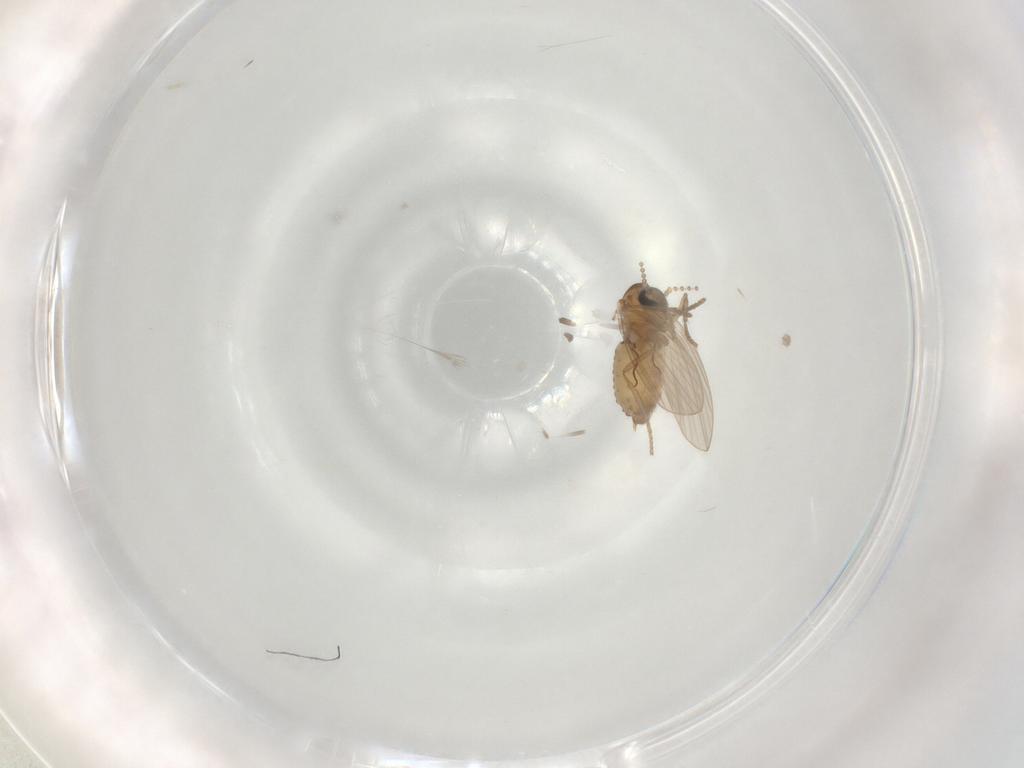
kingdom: Animalia
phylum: Arthropoda
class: Insecta
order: Diptera
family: Psychodidae
